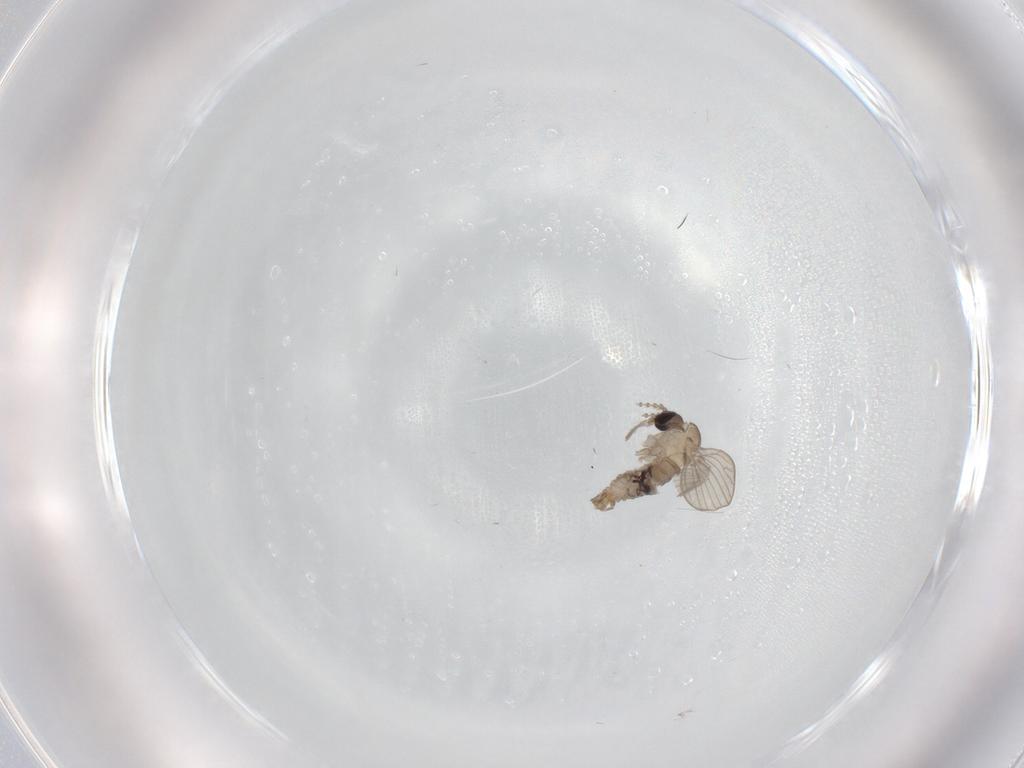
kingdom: Animalia
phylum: Arthropoda
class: Insecta
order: Diptera
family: Psychodidae
